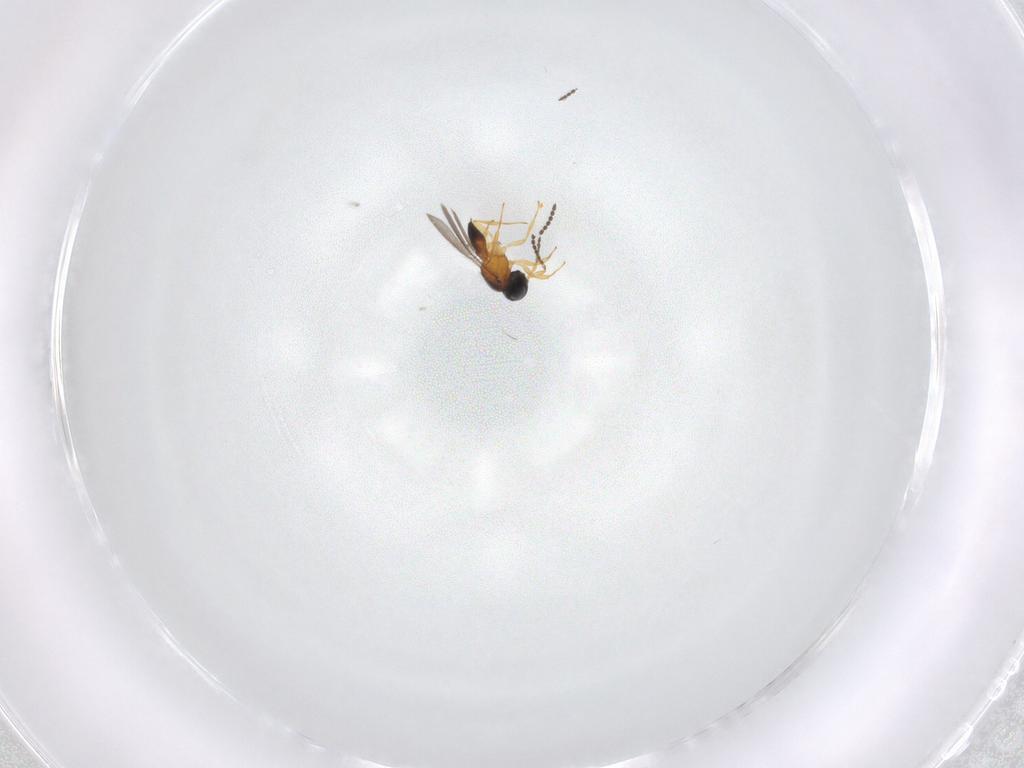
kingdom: Animalia
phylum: Arthropoda
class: Insecta
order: Hymenoptera
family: Scelionidae
